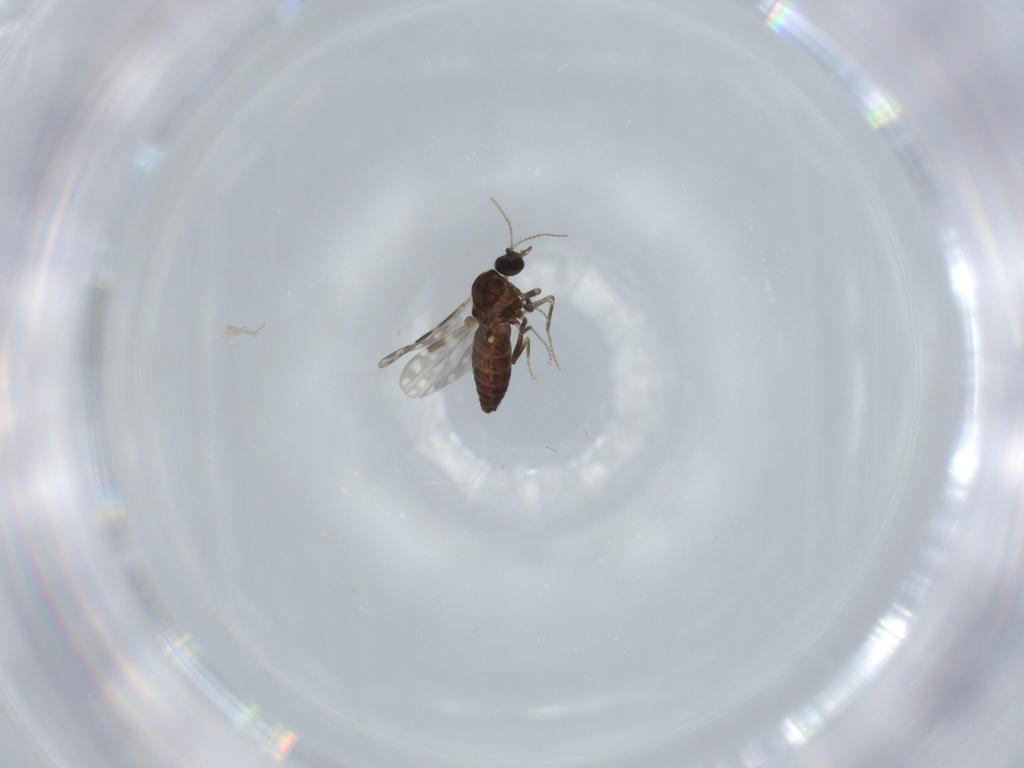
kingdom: Animalia
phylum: Arthropoda
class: Insecta
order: Diptera
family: Ceratopogonidae
